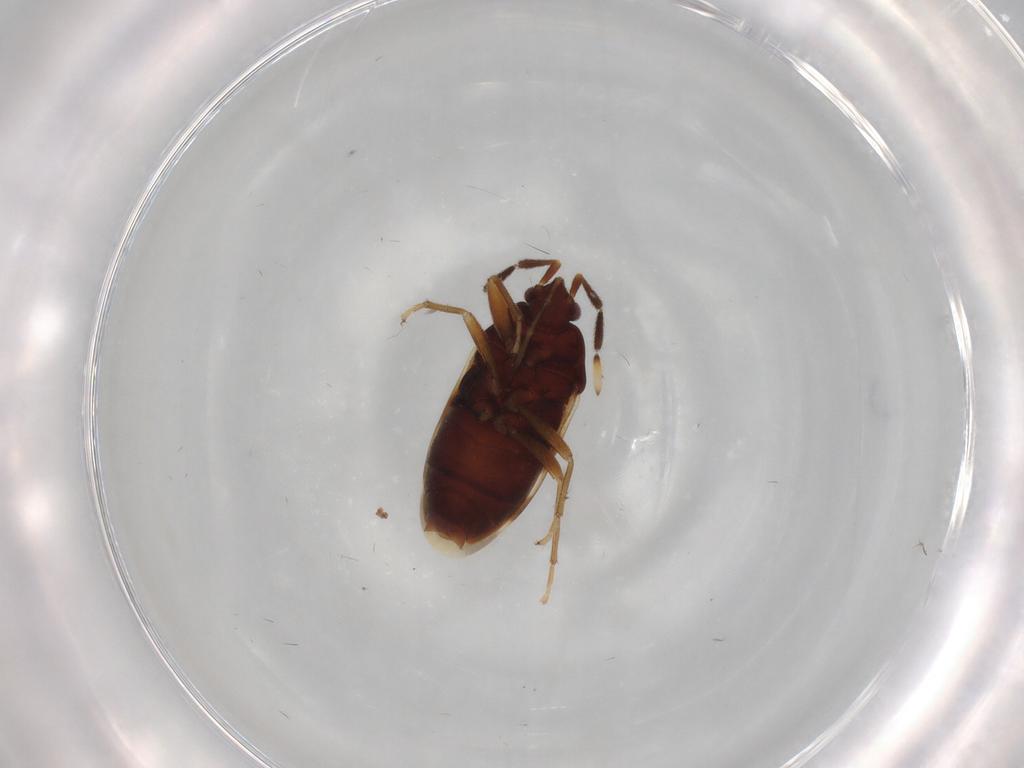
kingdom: Animalia
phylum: Arthropoda
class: Insecta
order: Hemiptera
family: Rhyparochromidae
